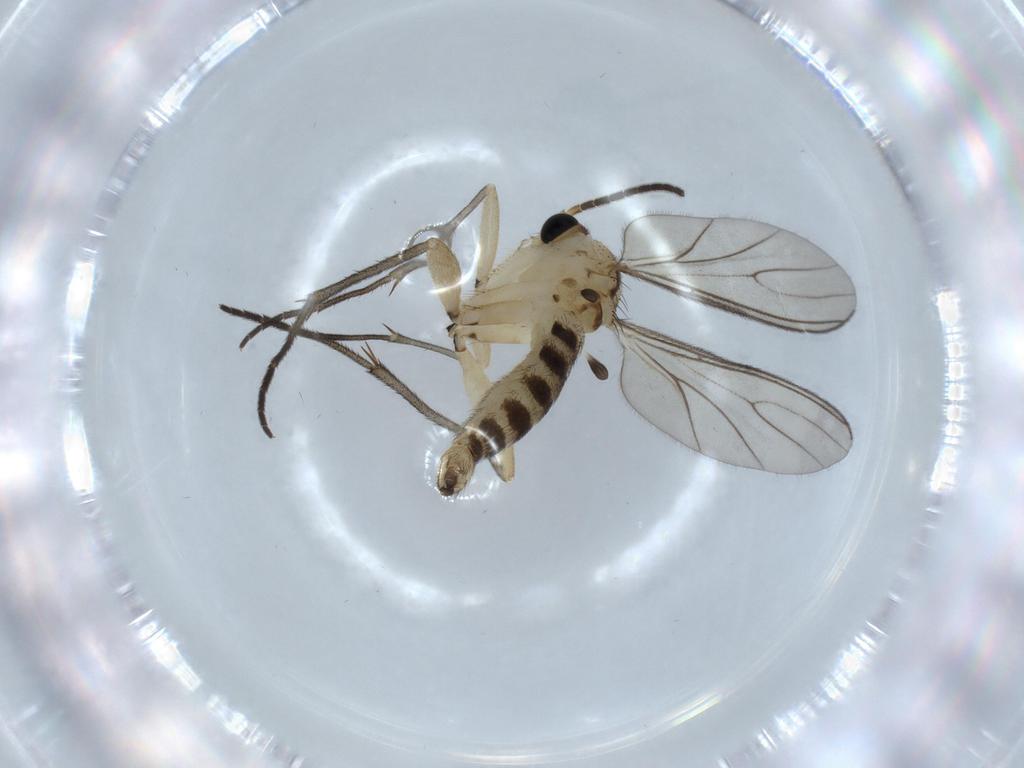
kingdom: Animalia
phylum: Arthropoda
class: Insecta
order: Diptera
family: Sciaridae
